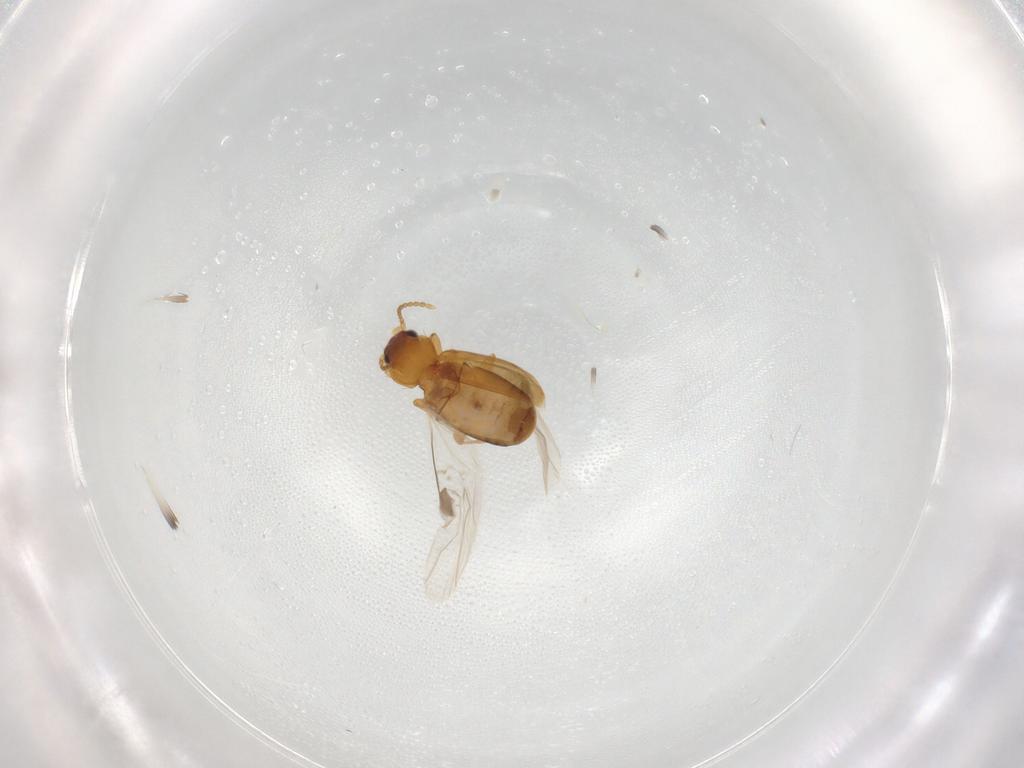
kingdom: Animalia
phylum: Arthropoda
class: Insecta
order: Coleoptera
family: Carabidae
